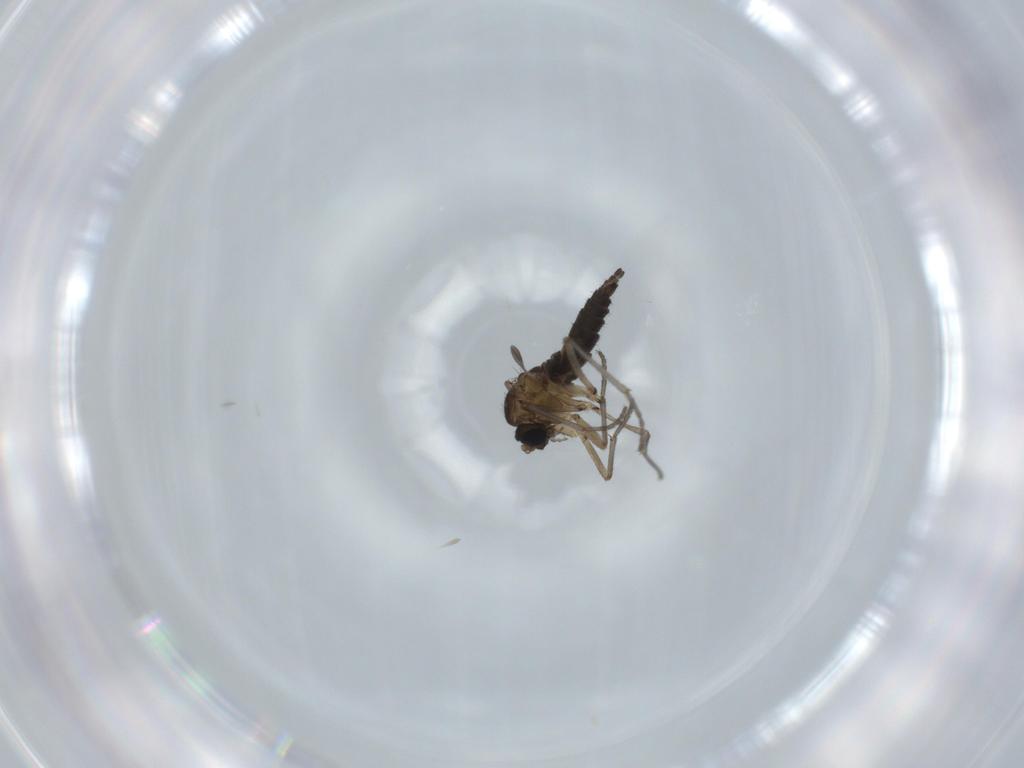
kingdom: Animalia
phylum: Arthropoda
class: Insecta
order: Diptera
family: Sciaridae
